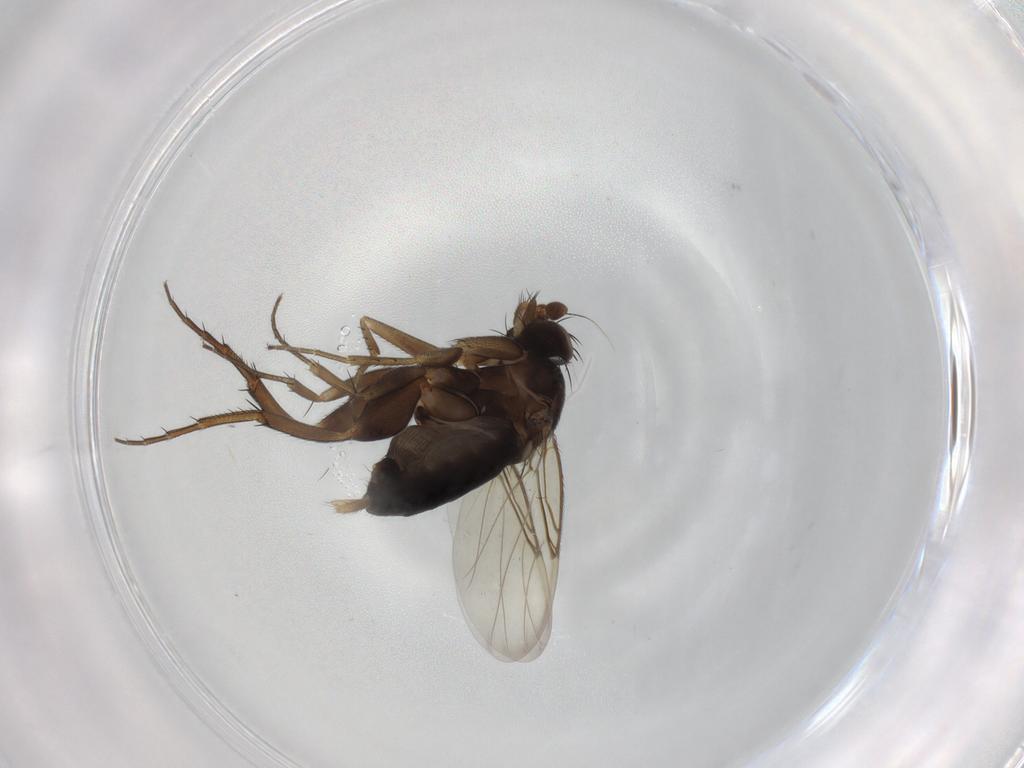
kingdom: Animalia
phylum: Arthropoda
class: Insecta
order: Diptera
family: Phoridae
